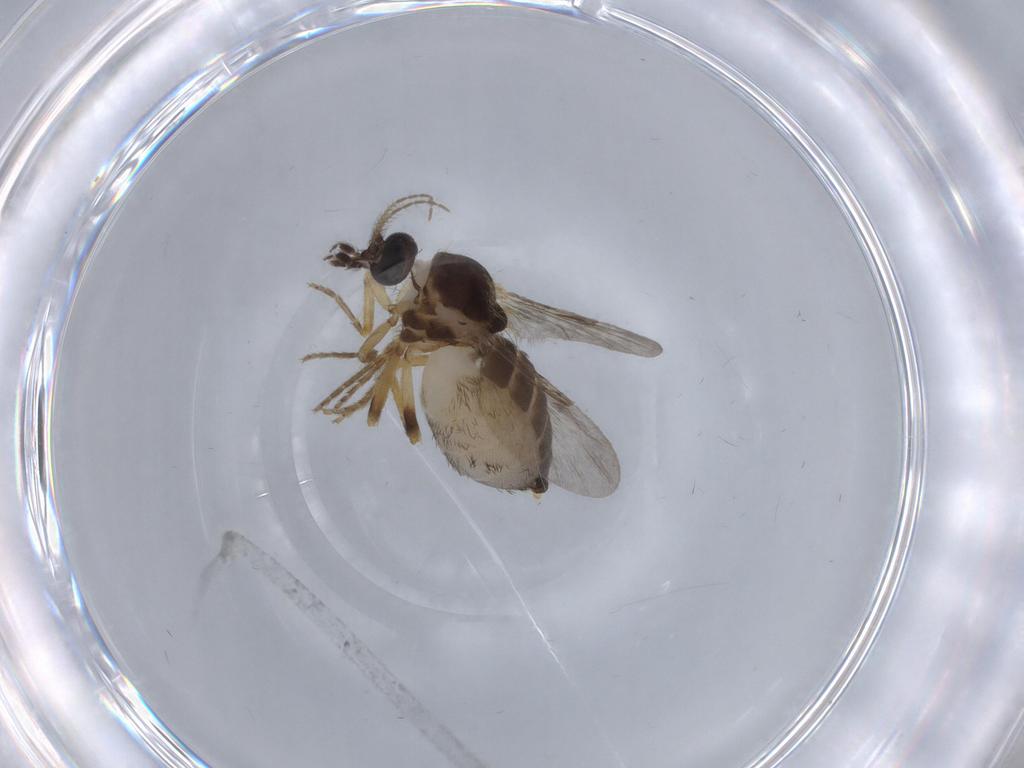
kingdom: Animalia
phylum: Arthropoda
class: Insecta
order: Diptera
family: Ceratopogonidae
